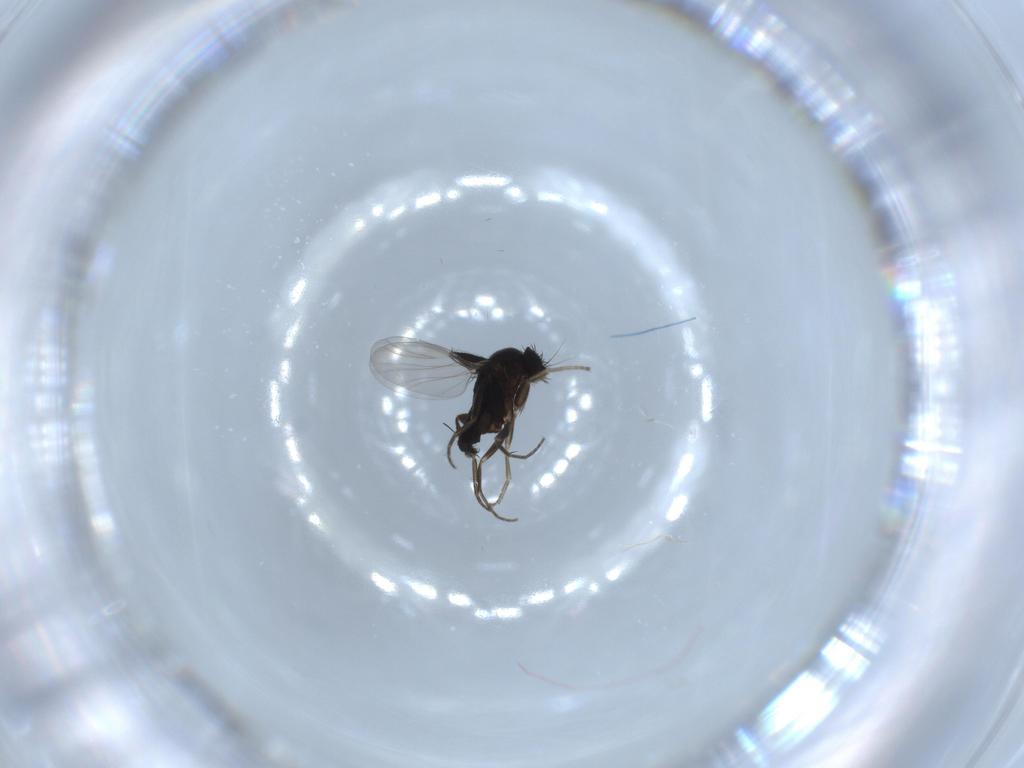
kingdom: Animalia
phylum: Arthropoda
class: Insecta
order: Diptera
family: Phoridae
